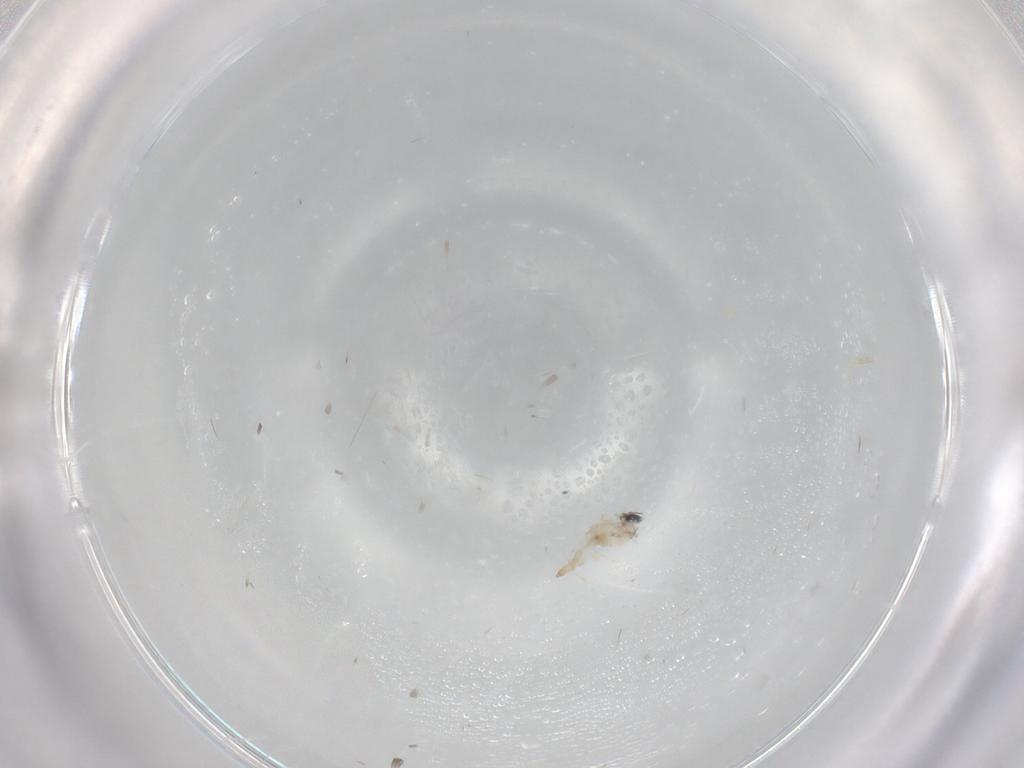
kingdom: Animalia
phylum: Arthropoda
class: Insecta
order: Diptera
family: Cecidomyiidae
